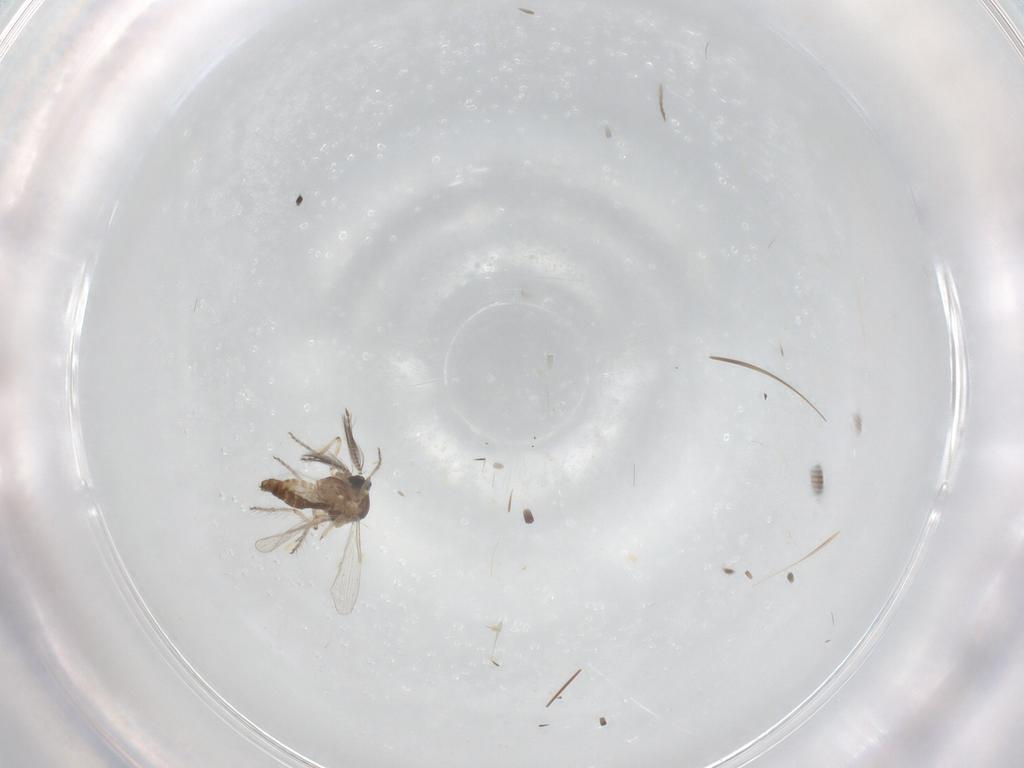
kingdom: Animalia
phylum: Arthropoda
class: Insecta
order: Diptera
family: Ceratopogonidae
